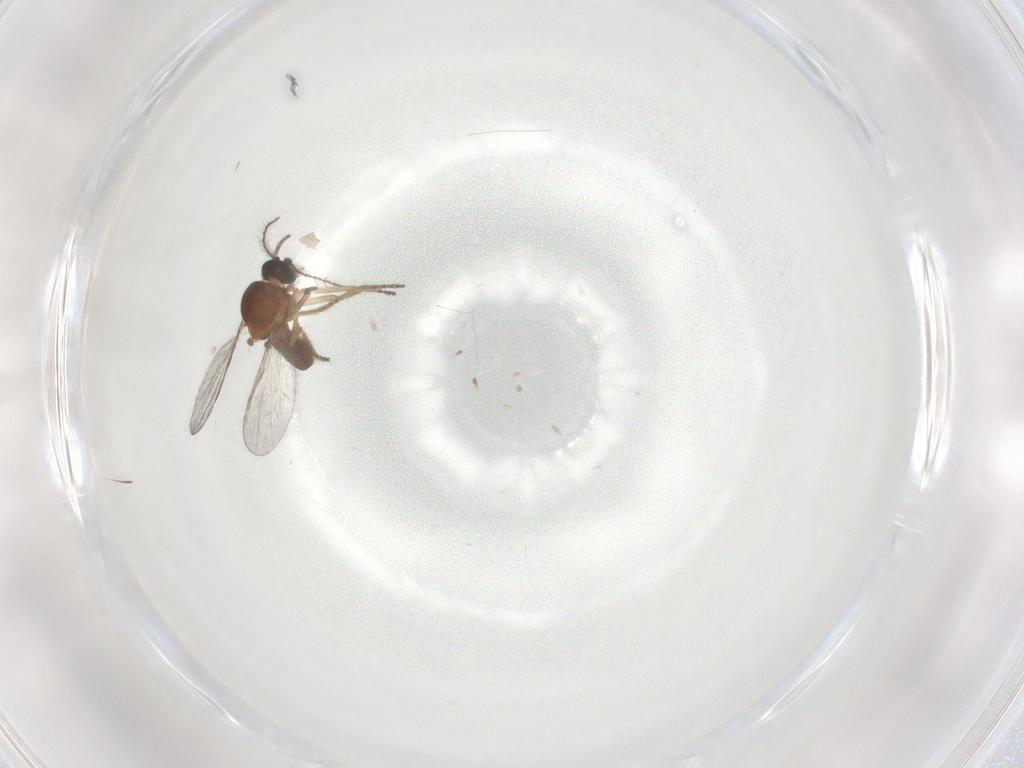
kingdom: Animalia
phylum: Arthropoda
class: Insecta
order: Diptera
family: Ceratopogonidae
